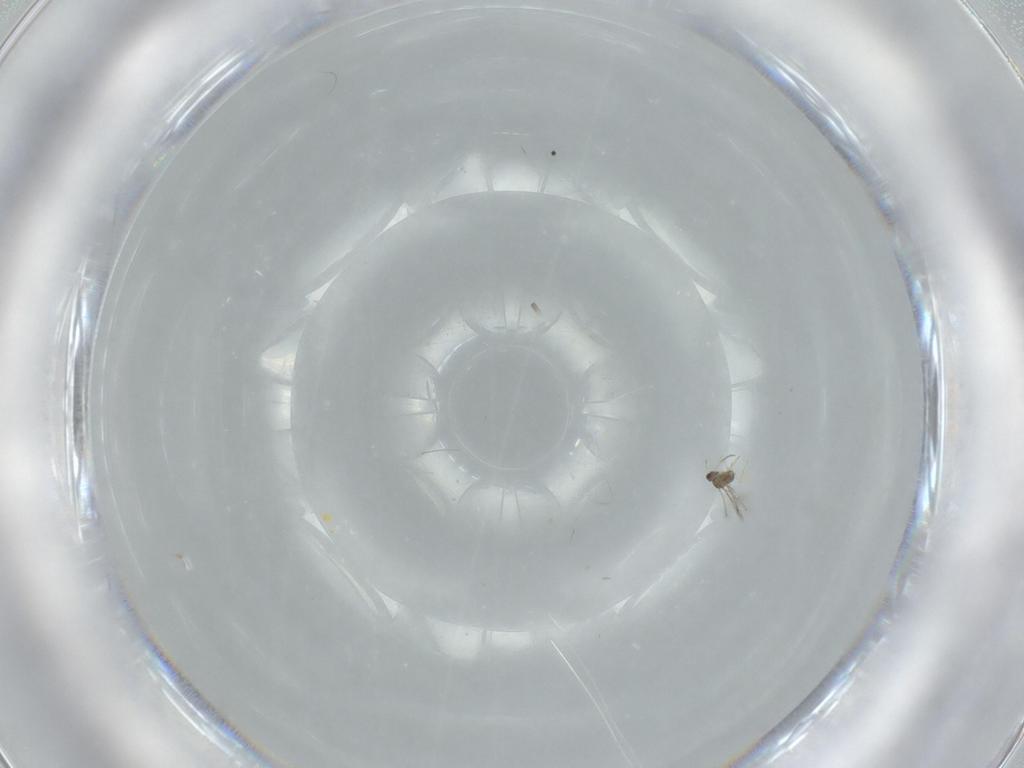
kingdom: Animalia
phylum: Arthropoda
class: Insecta
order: Hymenoptera
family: Mymaridae
